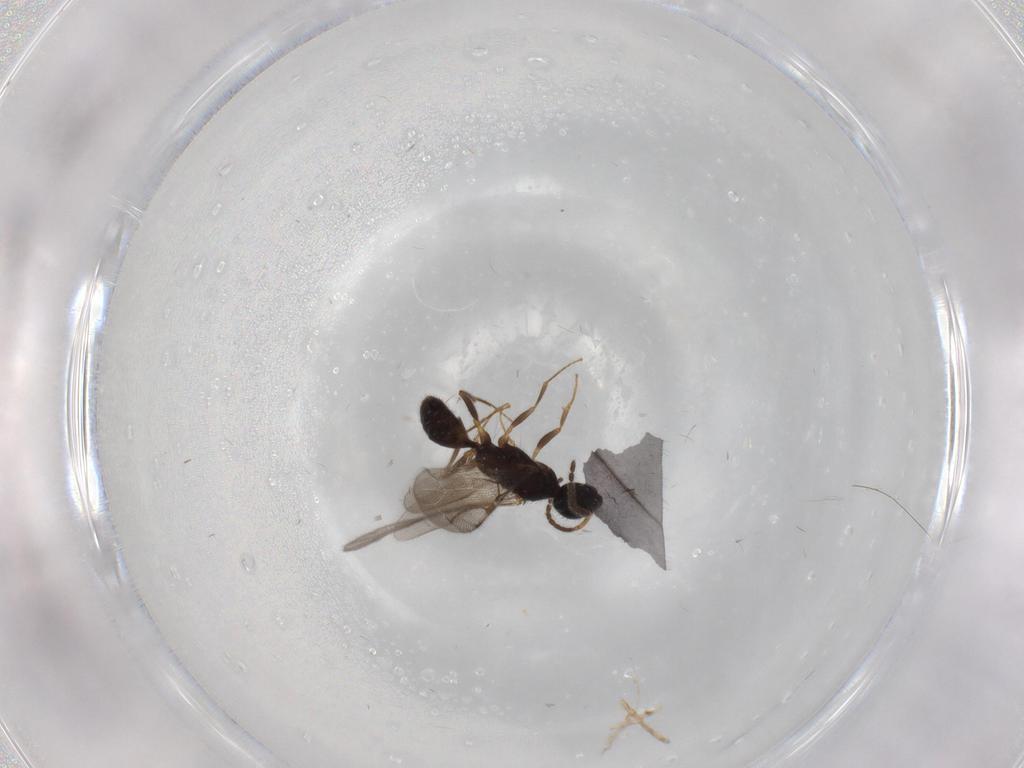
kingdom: Animalia
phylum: Arthropoda
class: Insecta
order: Hymenoptera
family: Bethylidae
